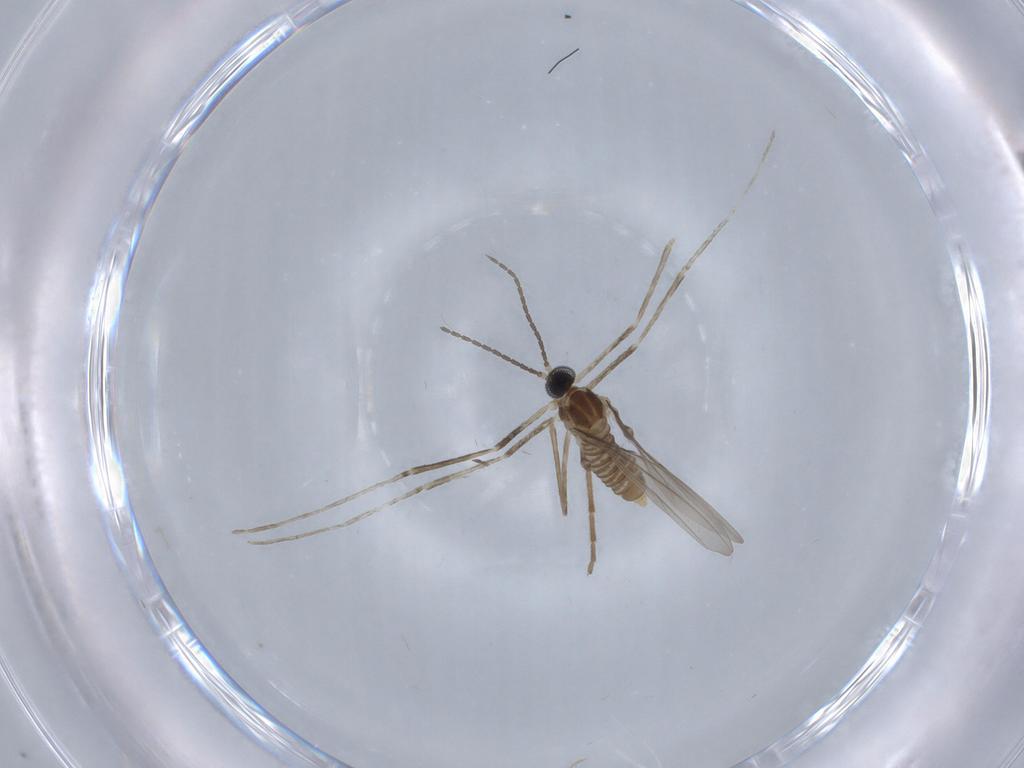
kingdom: Animalia
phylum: Arthropoda
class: Insecta
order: Diptera
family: Cecidomyiidae
